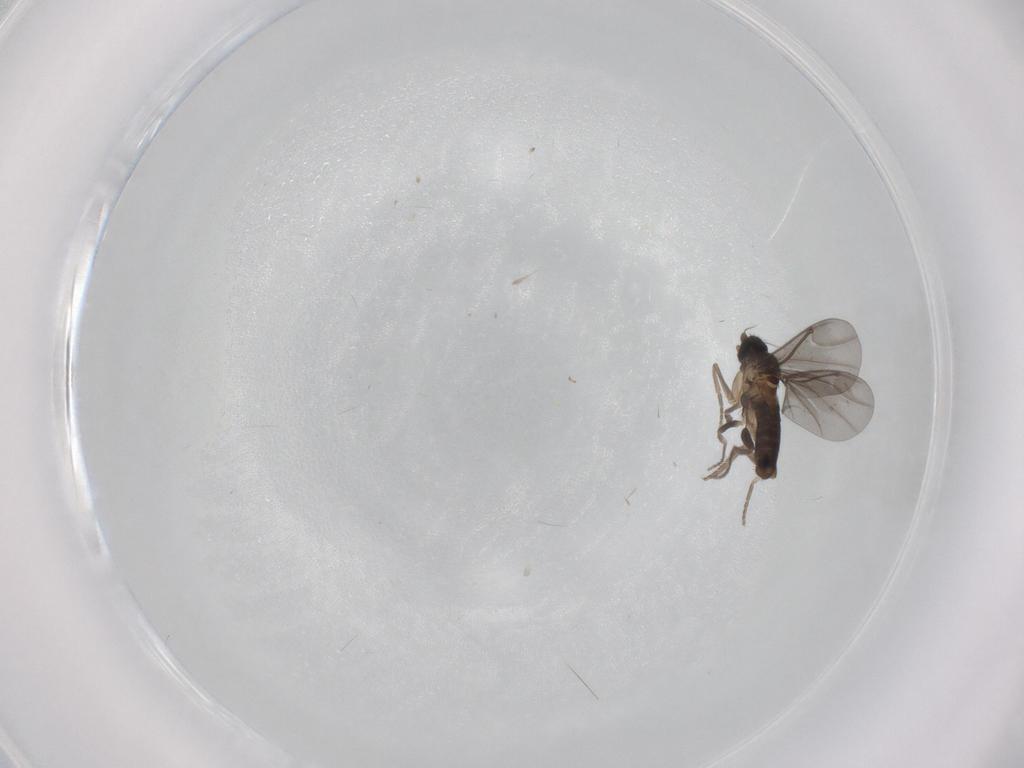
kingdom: Animalia
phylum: Arthropoda
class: Insecta
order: Diptera
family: Phoridae
